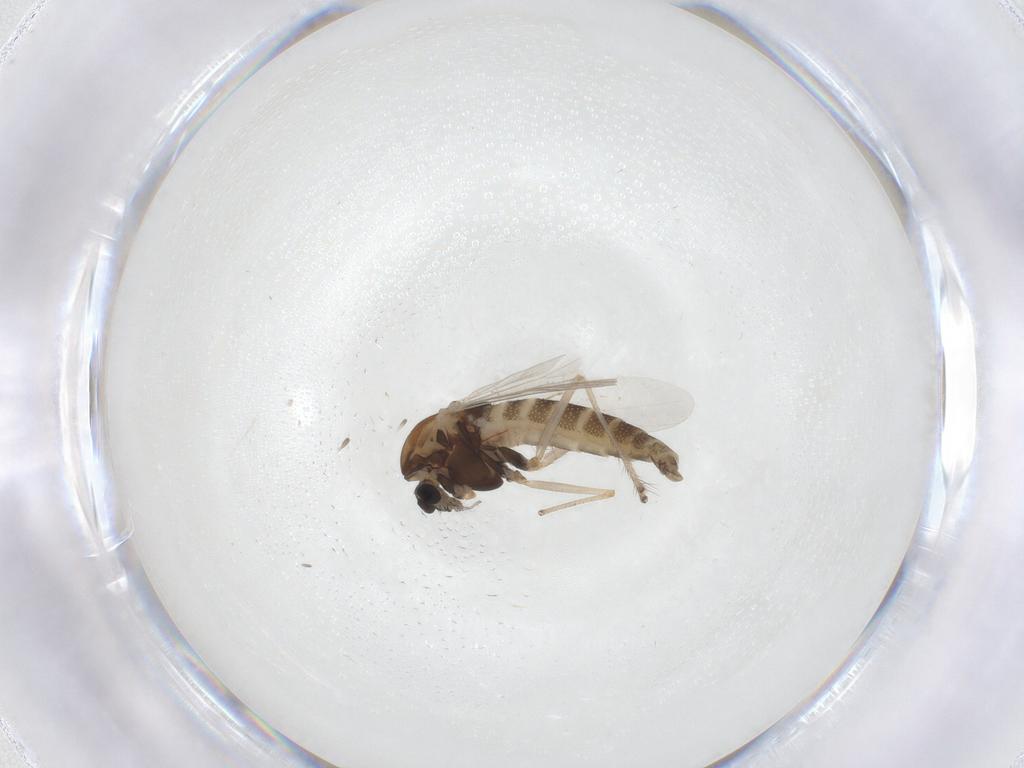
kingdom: Animalia
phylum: Arthropoda
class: Insecta
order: Diptera
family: Chironomidae
